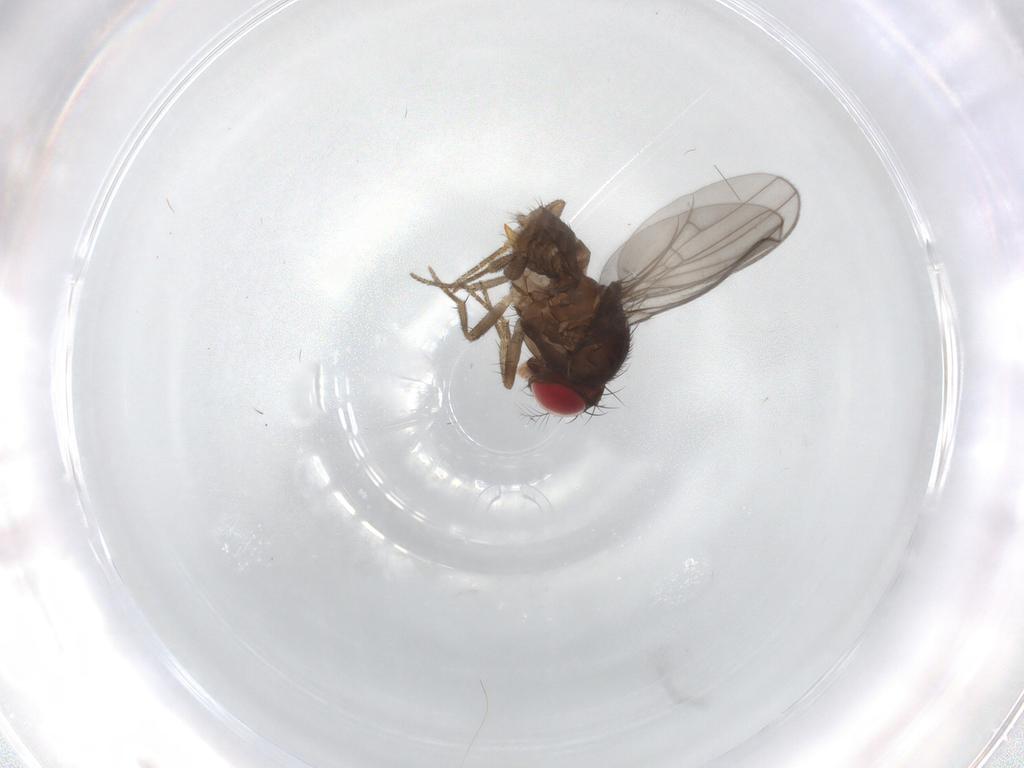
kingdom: Animalia
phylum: Arthropoda
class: Insecta
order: Diptera
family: Drosophilidae
